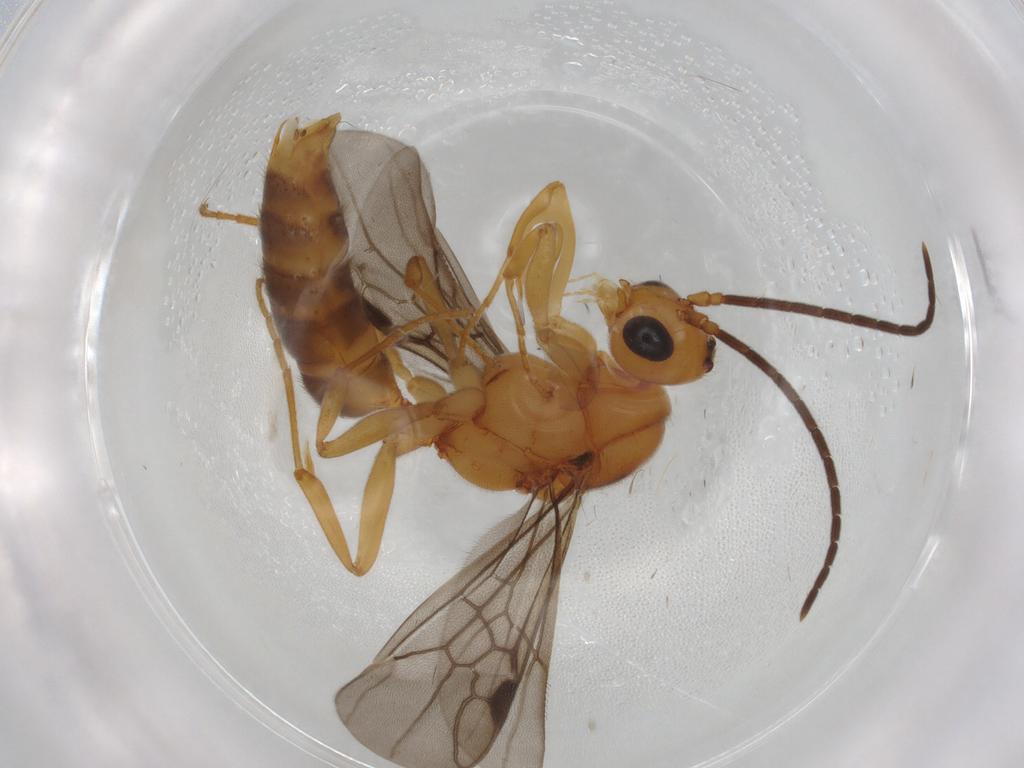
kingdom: Animalia
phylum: Arthropoda
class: Insecta
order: Hymenoptera
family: Formicidae
